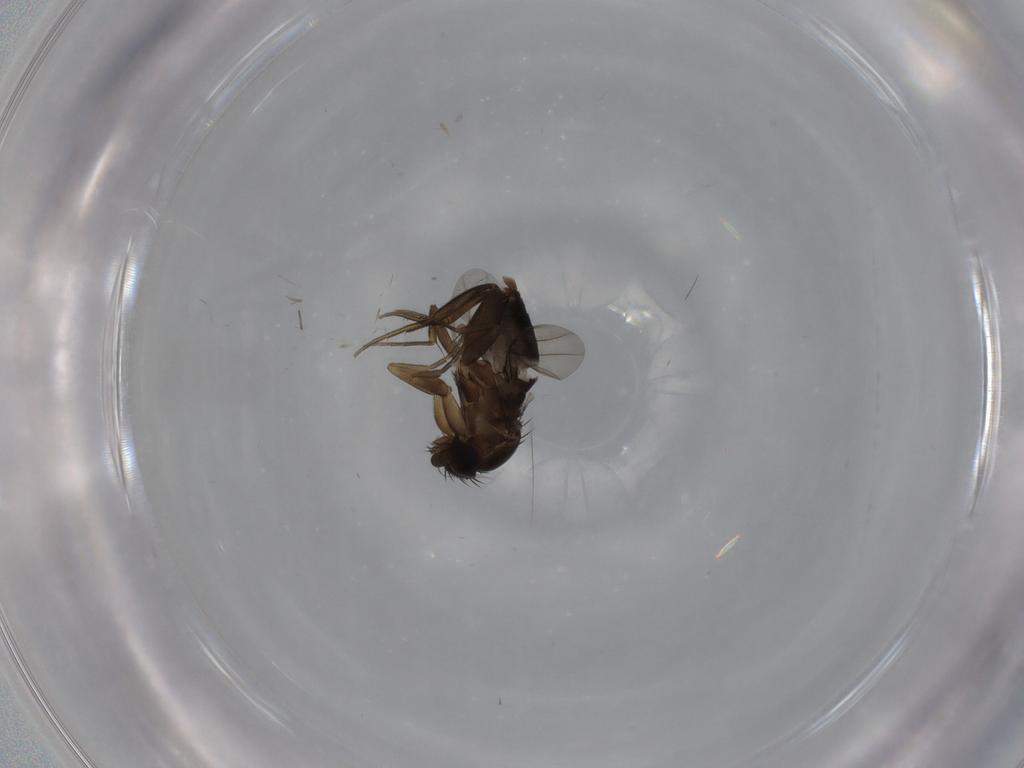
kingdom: Animalia
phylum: Arthropoda
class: Insecta
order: Diptera
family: Phoridae
